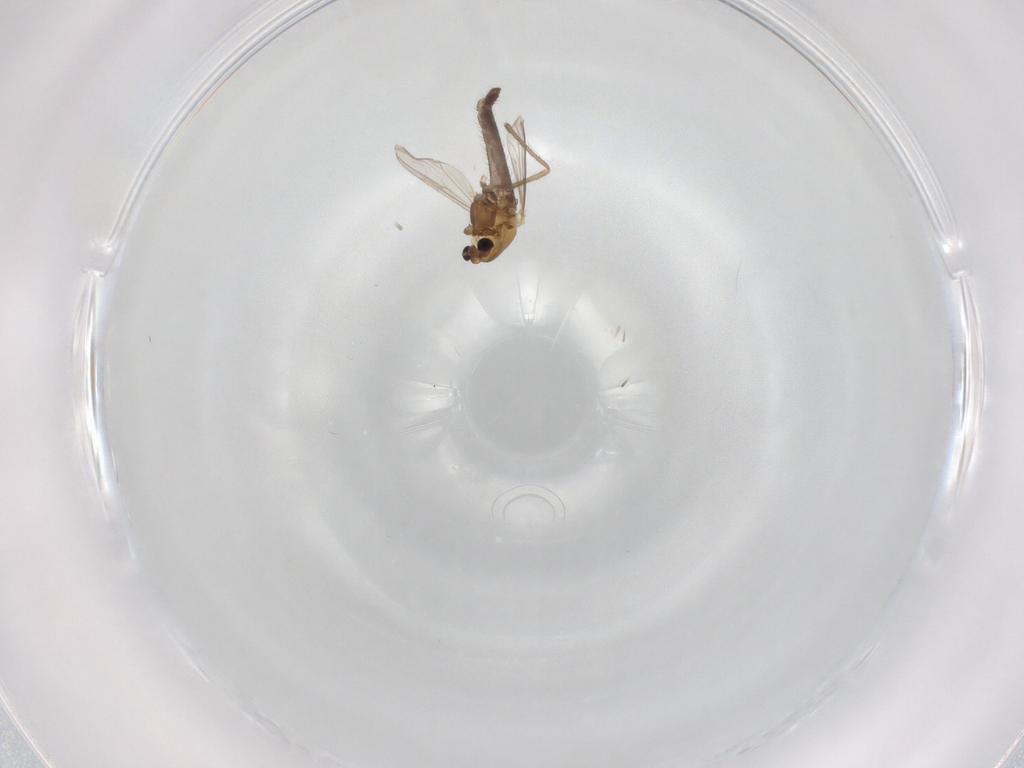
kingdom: Animalia
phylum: Arthropoda
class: Insecta
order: Diptera
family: Chironomidae
